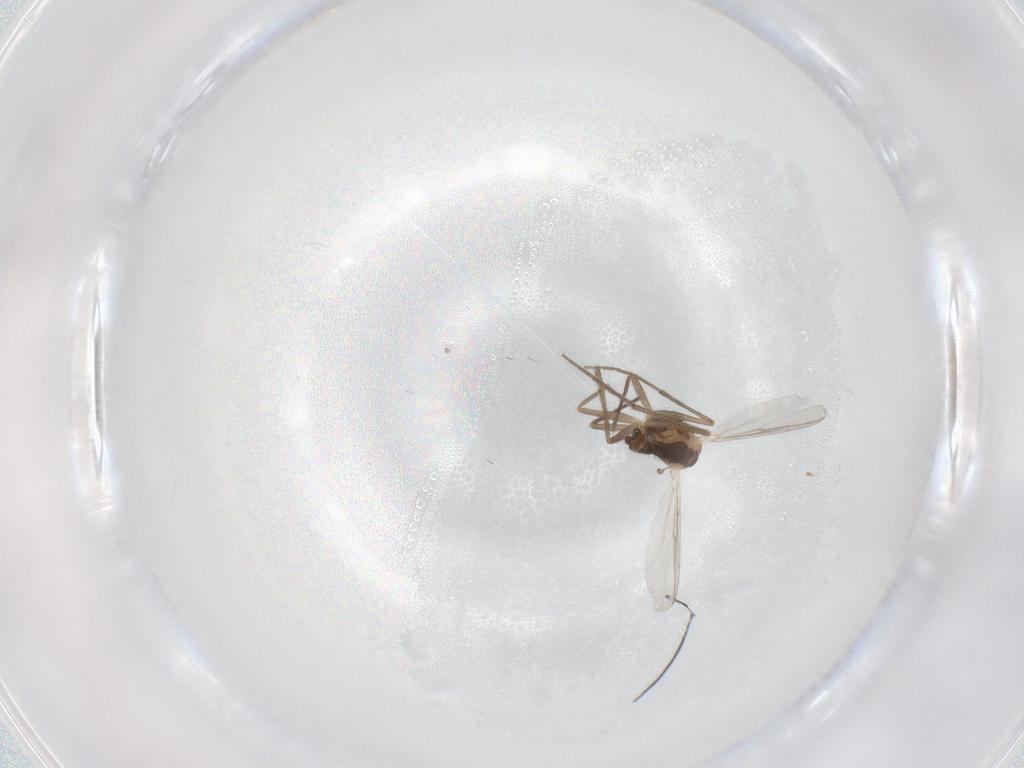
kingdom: Animalia
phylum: Arthropoda
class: Insecta
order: Diptera
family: Chironomidae
